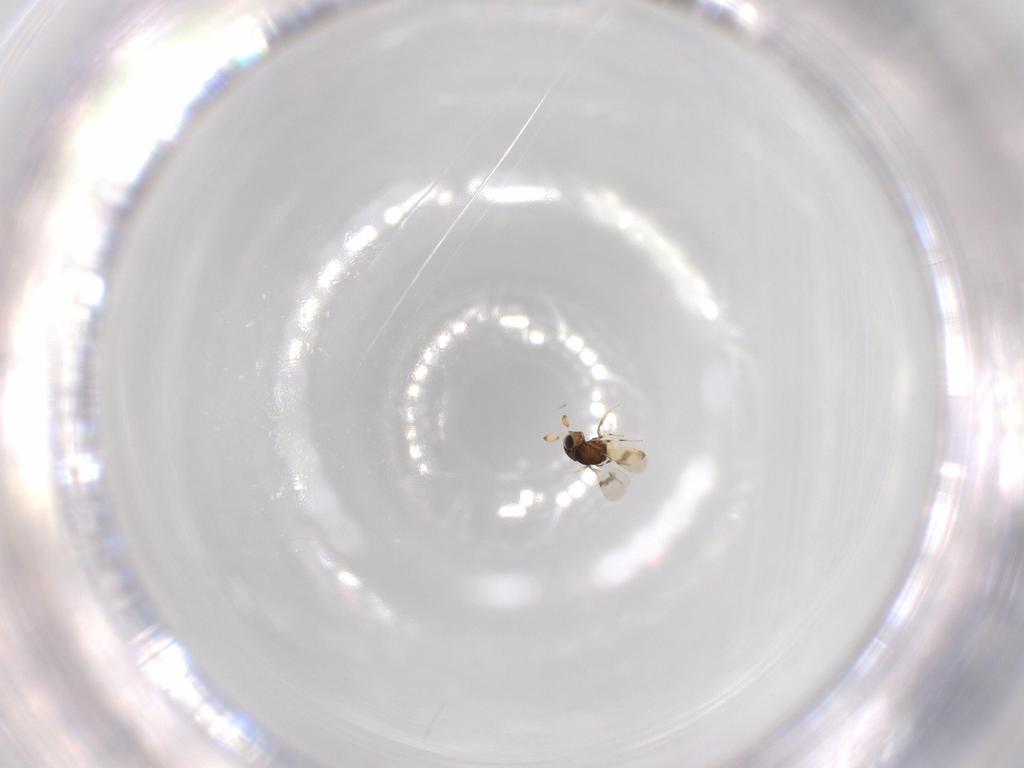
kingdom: Animalia
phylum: Arthropoda
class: Insecta
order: Hymenoptera
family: Scelionidae
